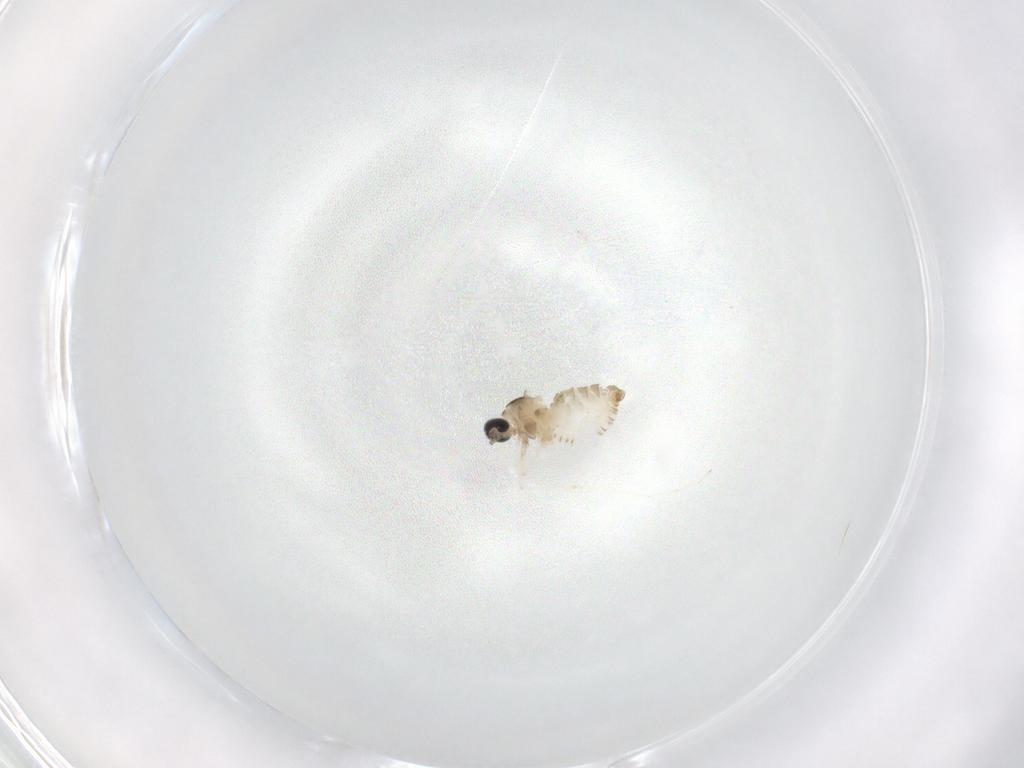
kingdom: Animalia
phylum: Arthropoda
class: Insecta
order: Diptera
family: Cecidomyiidae
